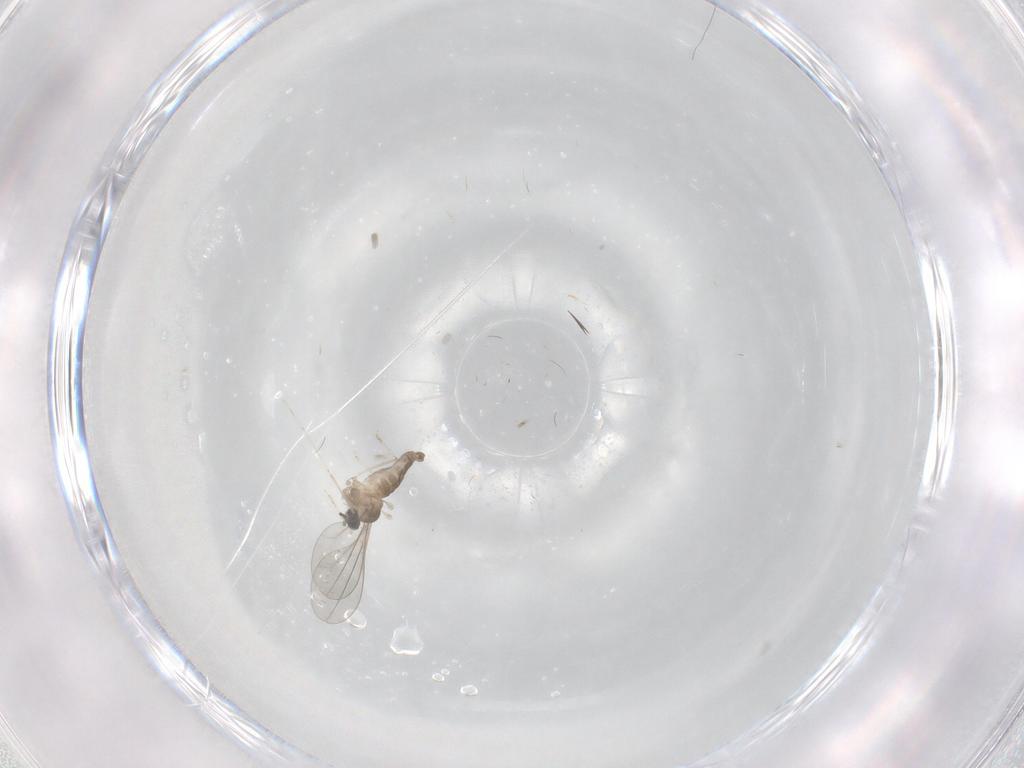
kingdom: Animalia
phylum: Arthropoda
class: Insecta
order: Diptera
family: Scatopsidae
